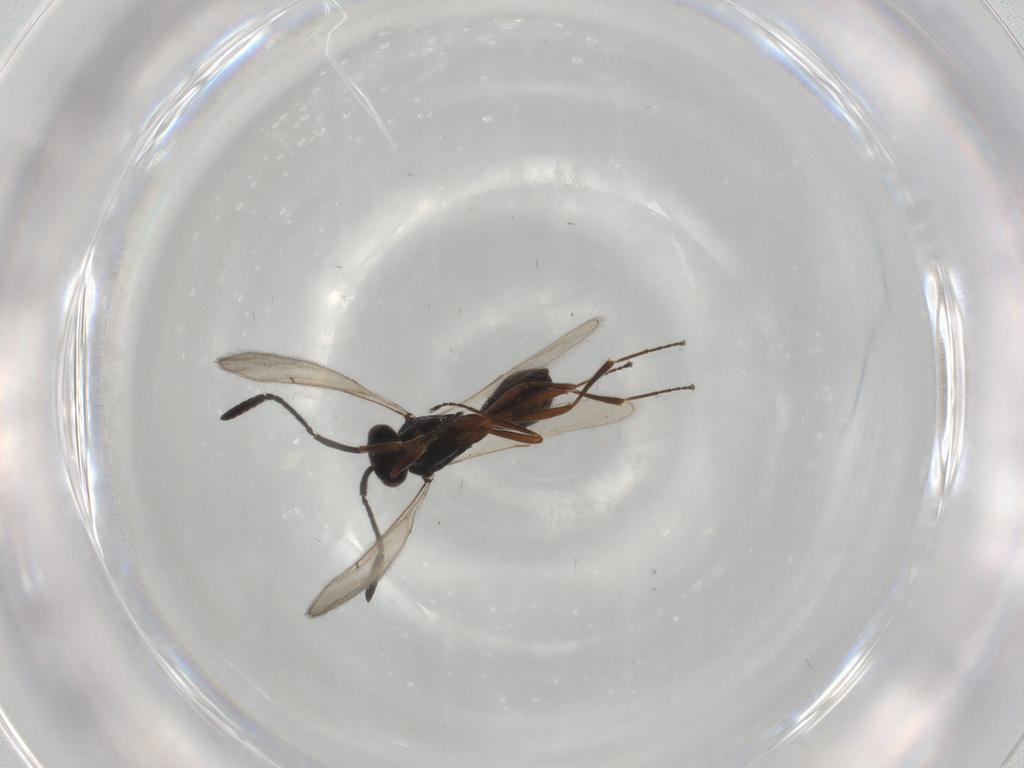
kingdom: Animalia
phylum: Arthropoda
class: Insecta
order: Hymenoptera
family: Scelionidae
